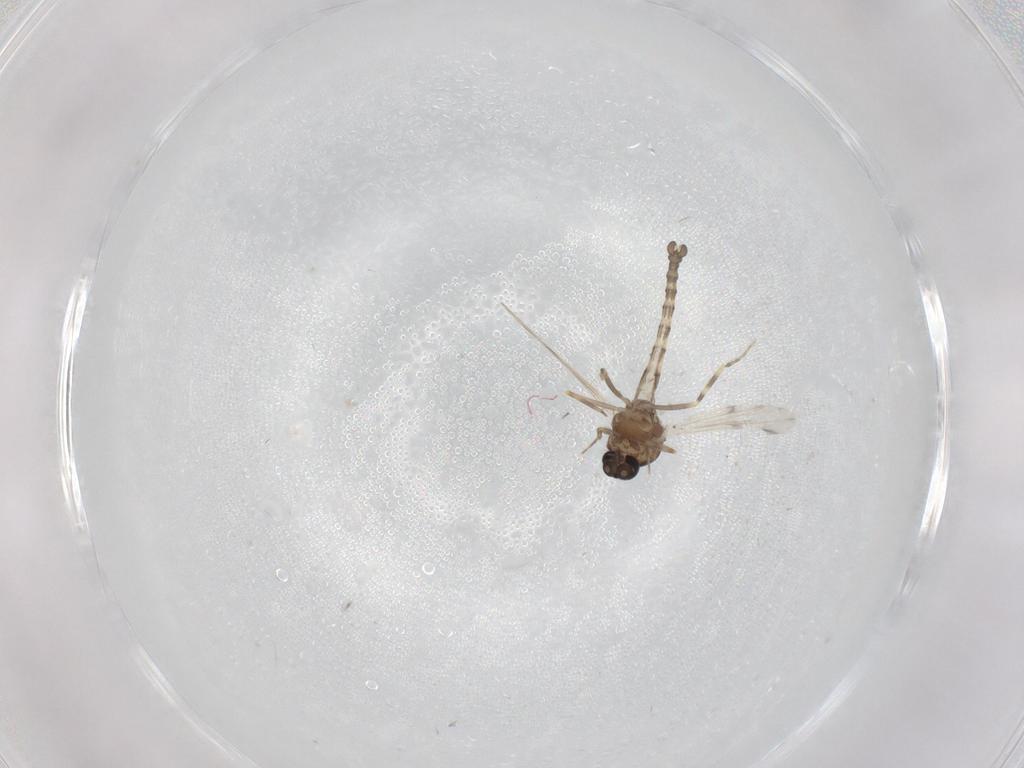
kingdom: Animalia
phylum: Arthropoda
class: Insecta
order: Diptera
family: Ceratopogonidae
